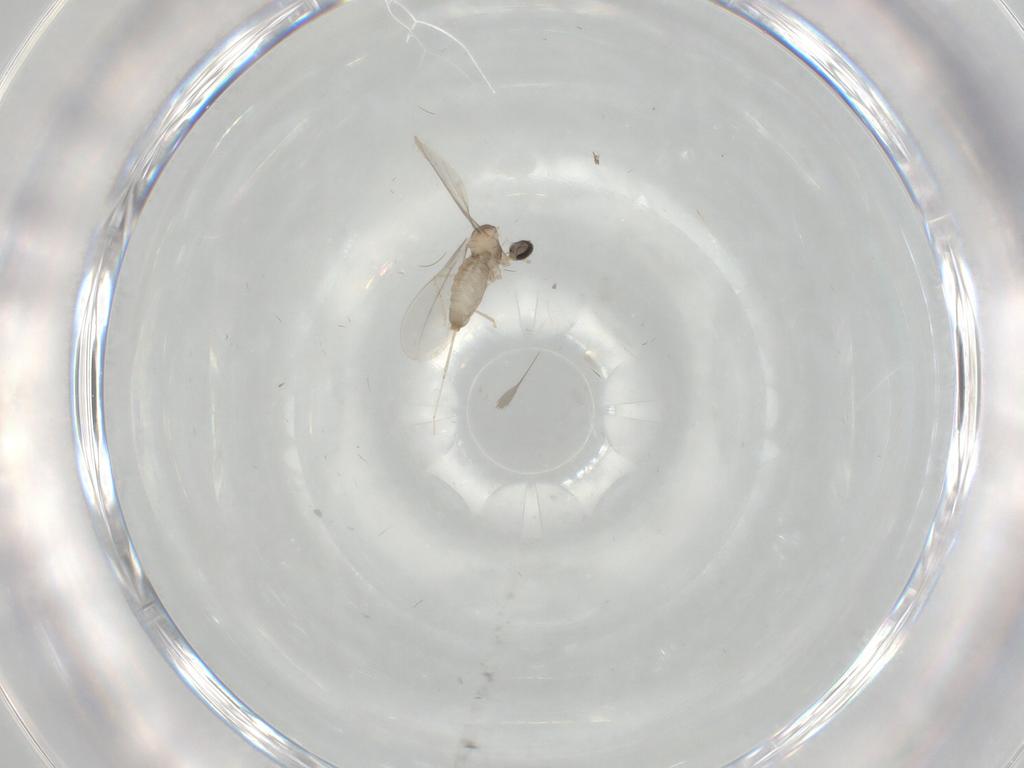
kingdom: Animalia
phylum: Arthropoda
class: Insecta
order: Diptera
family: Cecidomyiidae
